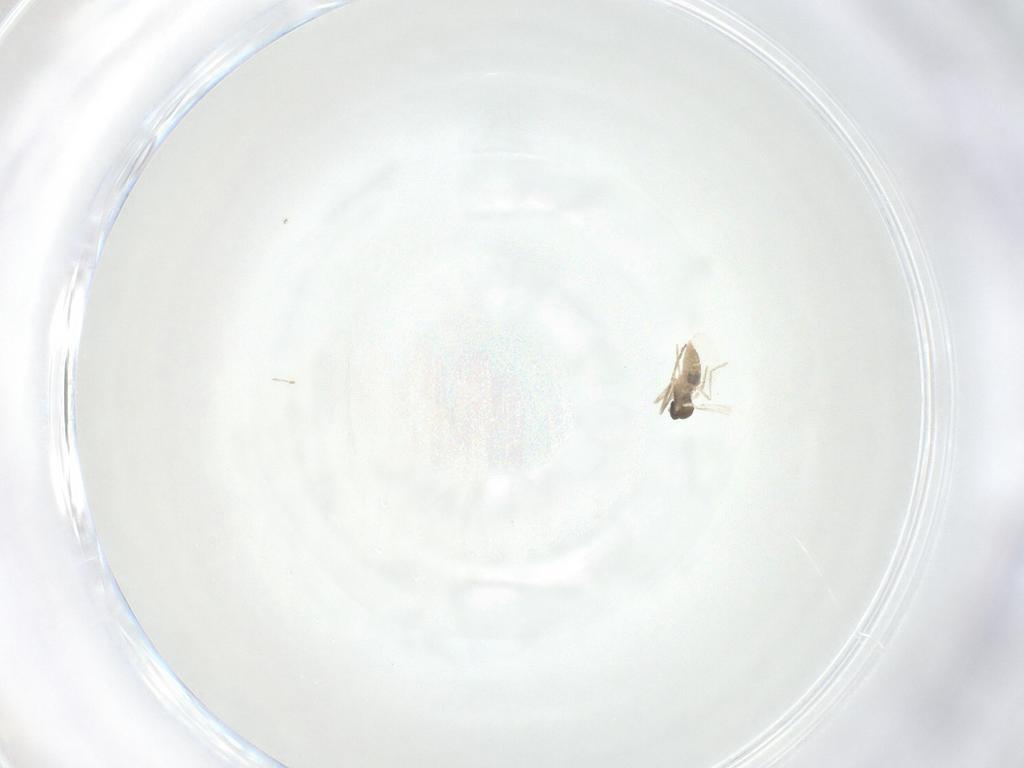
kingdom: Animalia
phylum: Arthropoda
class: Insecta
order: Diptera
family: Cecidomyiidae
